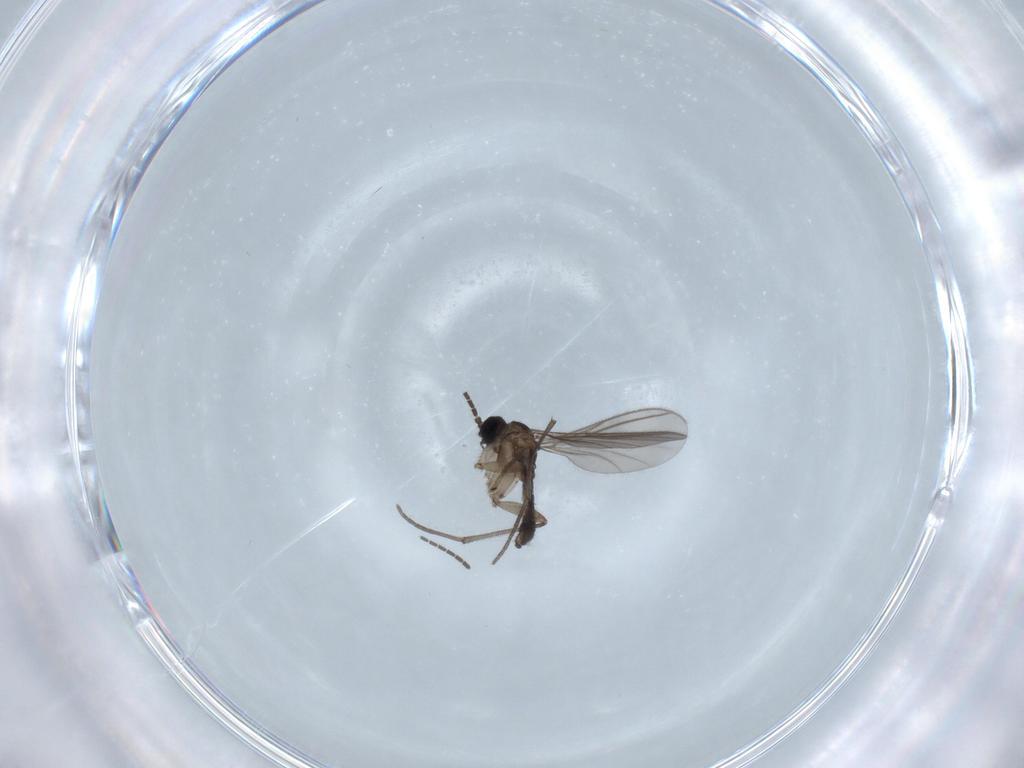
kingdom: Animalia
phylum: Arthropoda
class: Insecta
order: Diptera
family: Sciaridae
